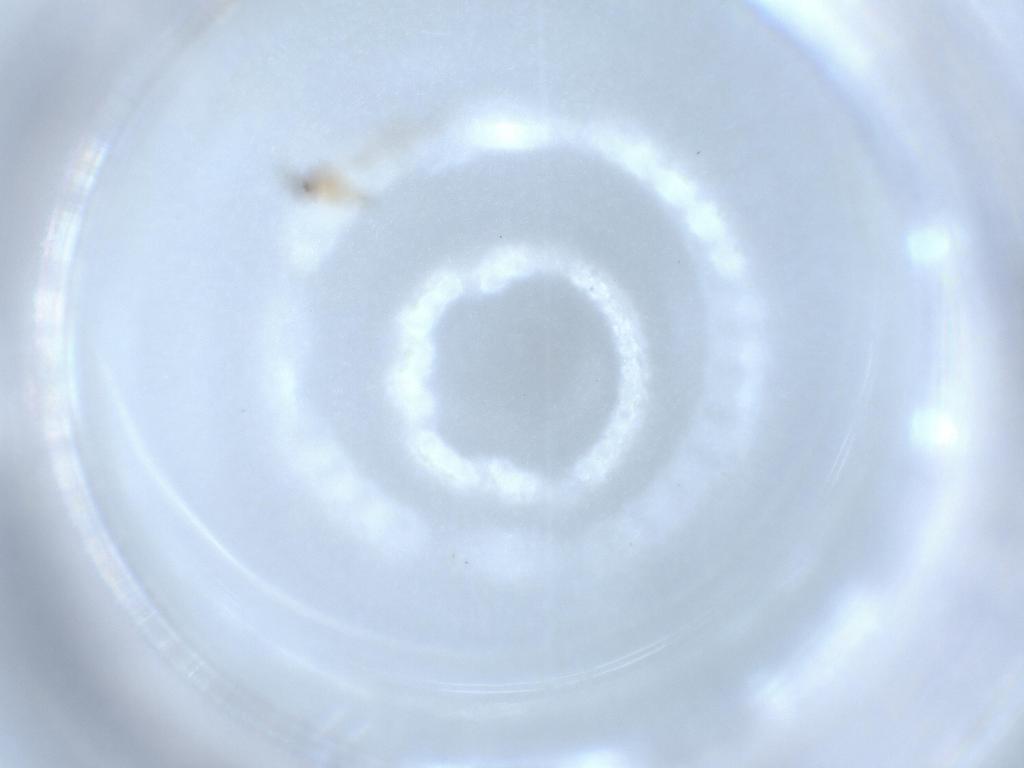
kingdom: Animalia
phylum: Arthropoda
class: Insecta
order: Diptera
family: Cecidomyiidae
